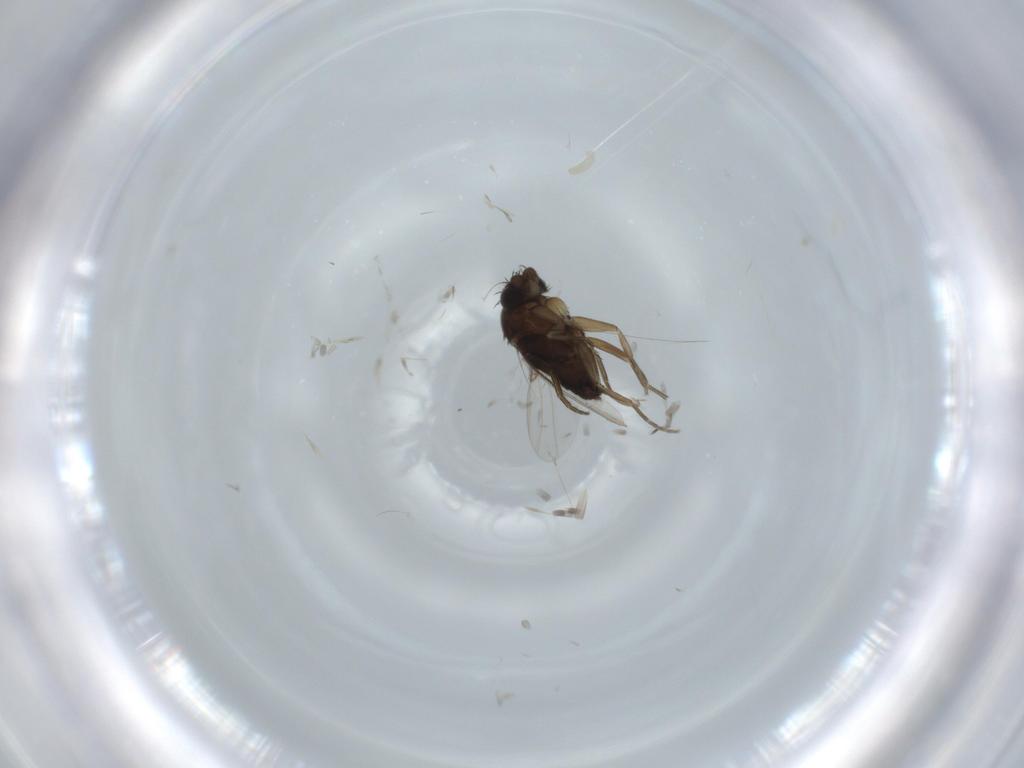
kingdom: Animalia
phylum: Arthropoda
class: Insecta
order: Diptera
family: Phoridae
